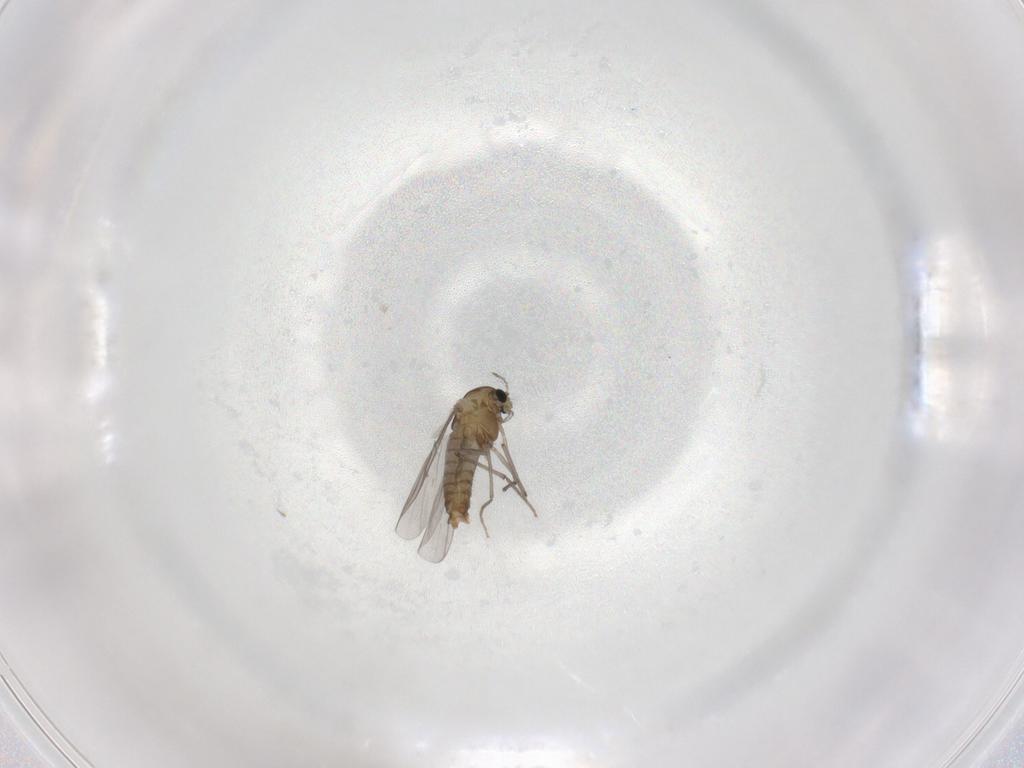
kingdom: Animalia
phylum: Arthropoda
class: Insecta
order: Diptera
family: Chironomidae
